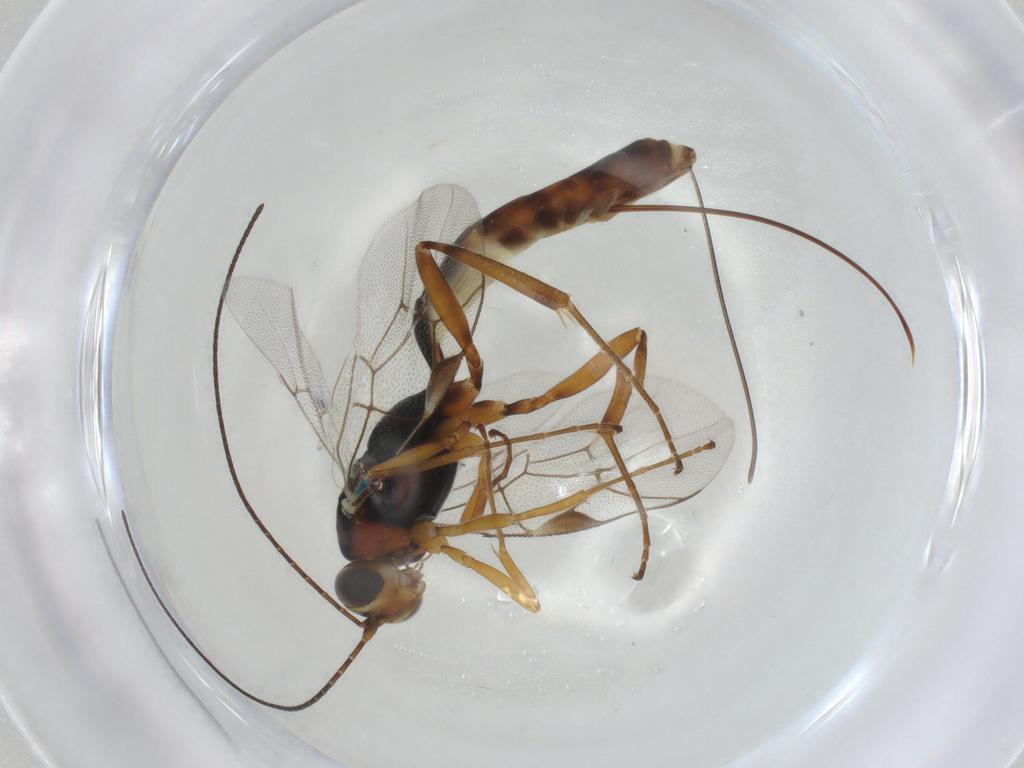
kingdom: Animalia
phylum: Arthropoda
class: Insecta
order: Hymenoptera
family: Ichneumonidae
